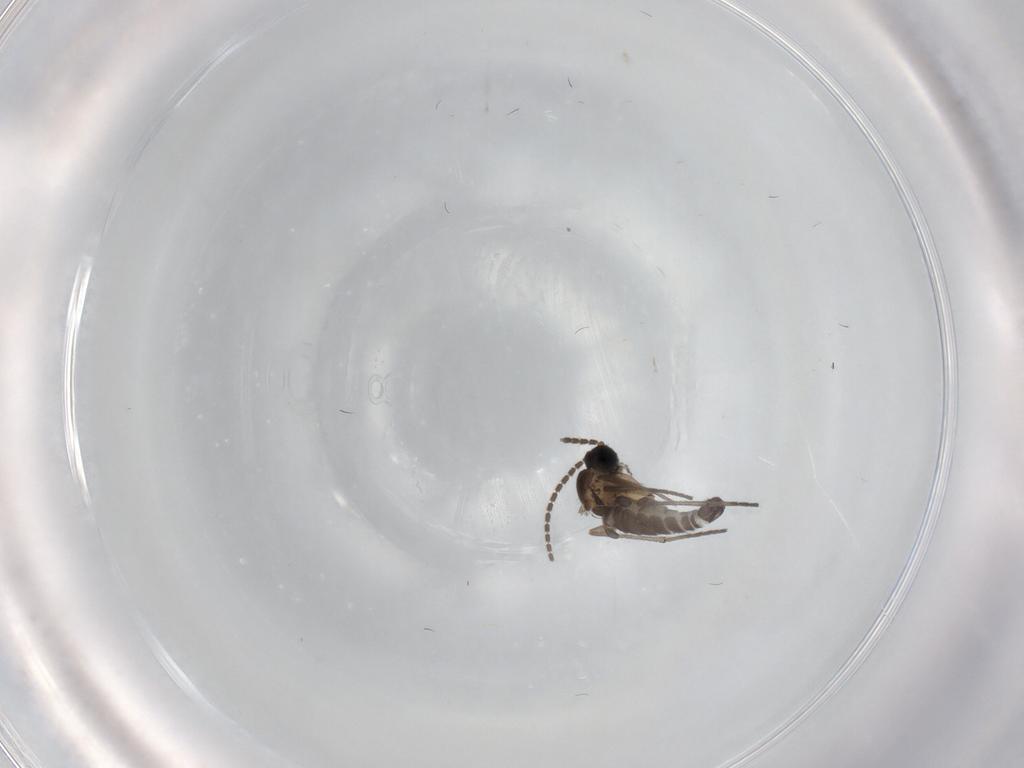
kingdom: Animalia
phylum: Arthropoda
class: Insecta
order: Diptera
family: Sciaridae
